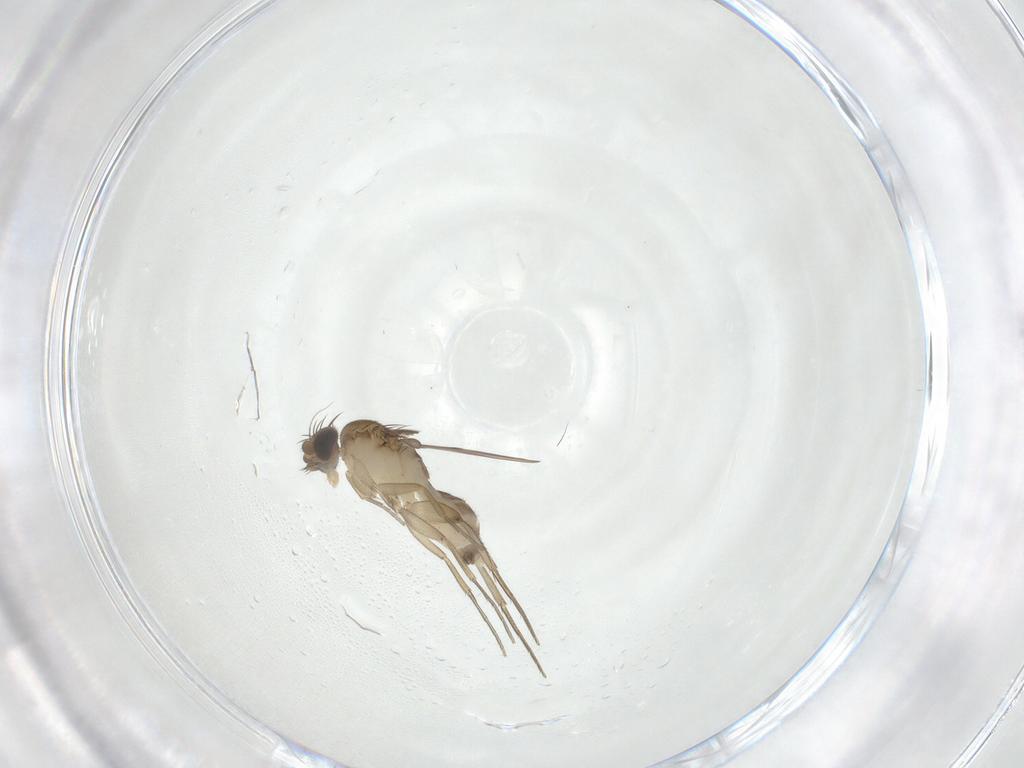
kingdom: Animalia
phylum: Arthropoda
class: Insecta
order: Diptera
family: Phoridae
